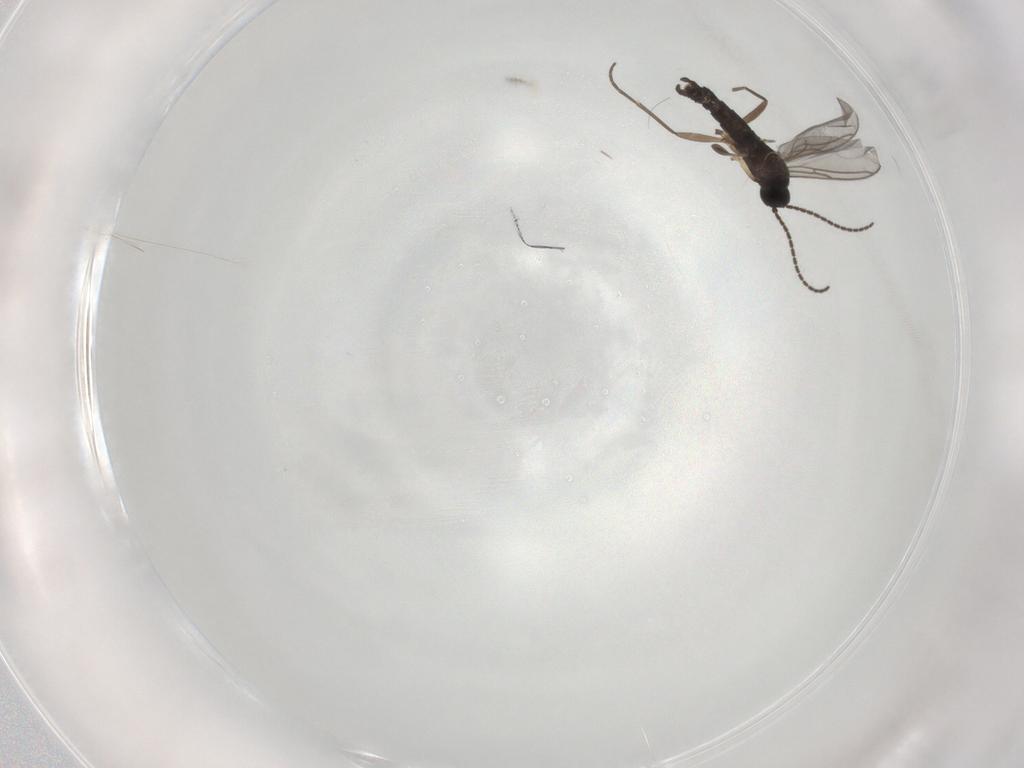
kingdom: Animalia
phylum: Arthropoda
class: Insecta
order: Diptera
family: Sciaridae
